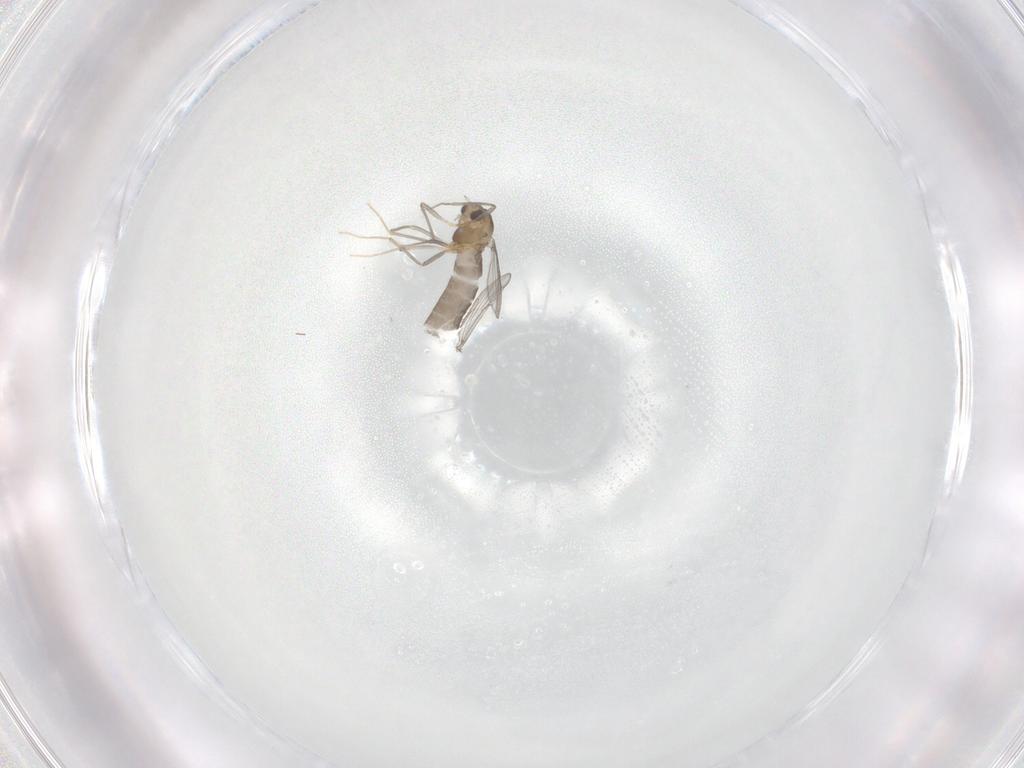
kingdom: Animalia
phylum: Arthropoda
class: Insecta
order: Diptera
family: Chironomidae
